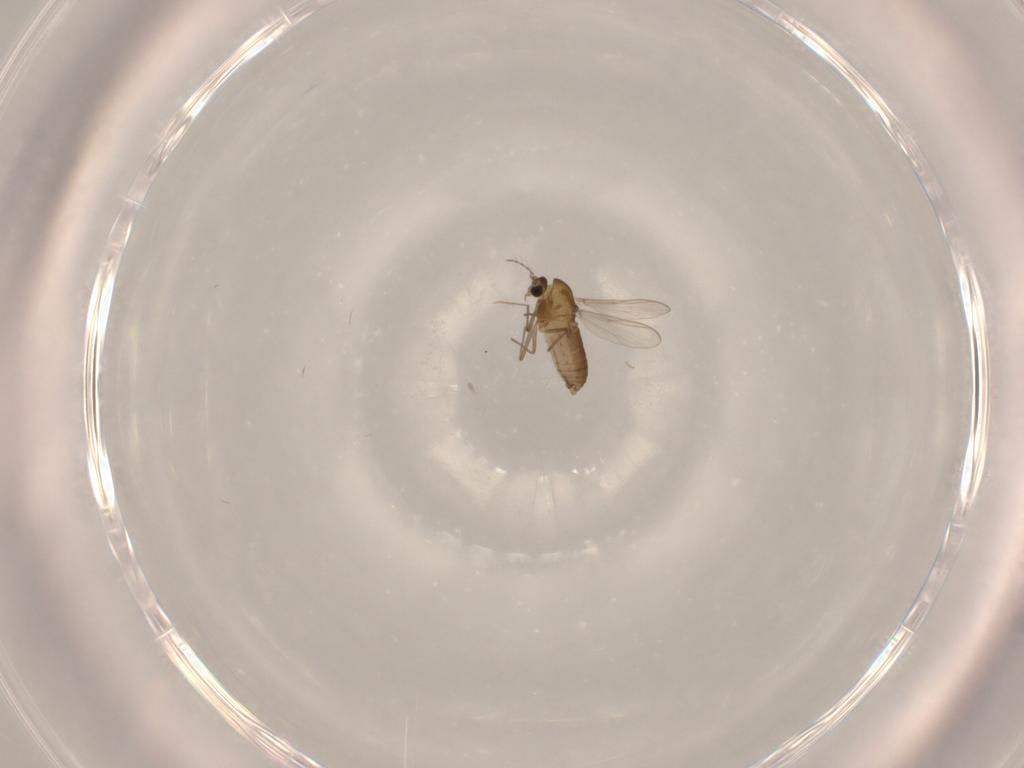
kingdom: Animalia
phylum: Arthropoda
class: Insecta
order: Diptera
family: Chironomidae
